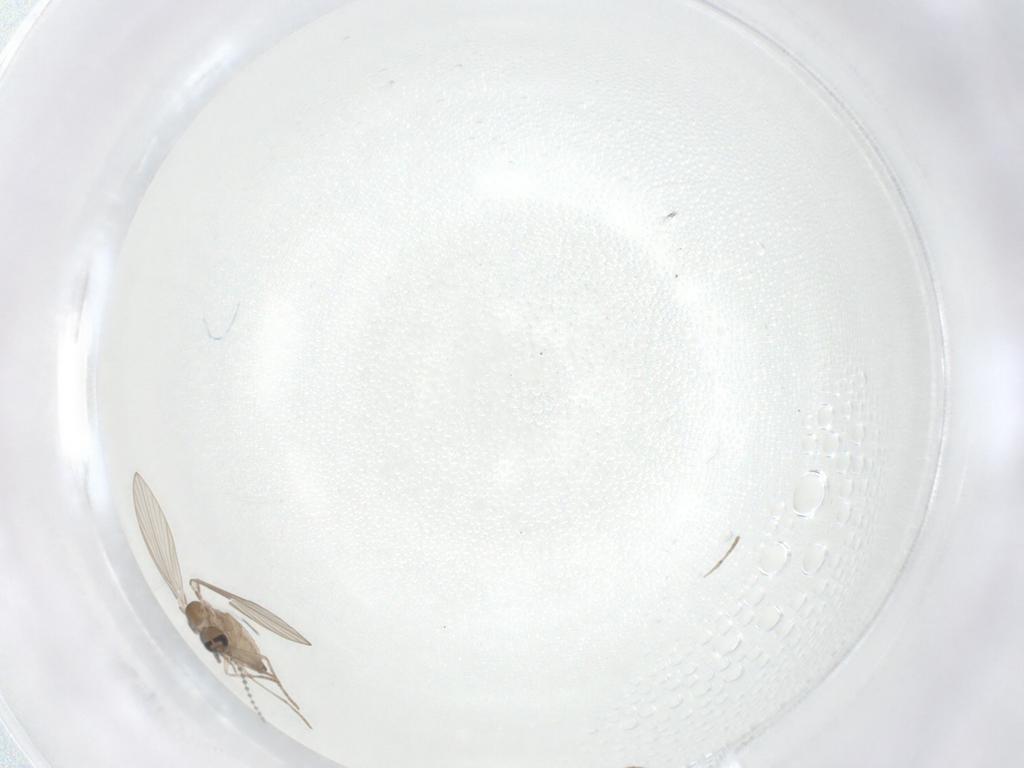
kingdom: Animalia
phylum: Arthropoda
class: Insecta
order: Diptera
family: Psychodidae
